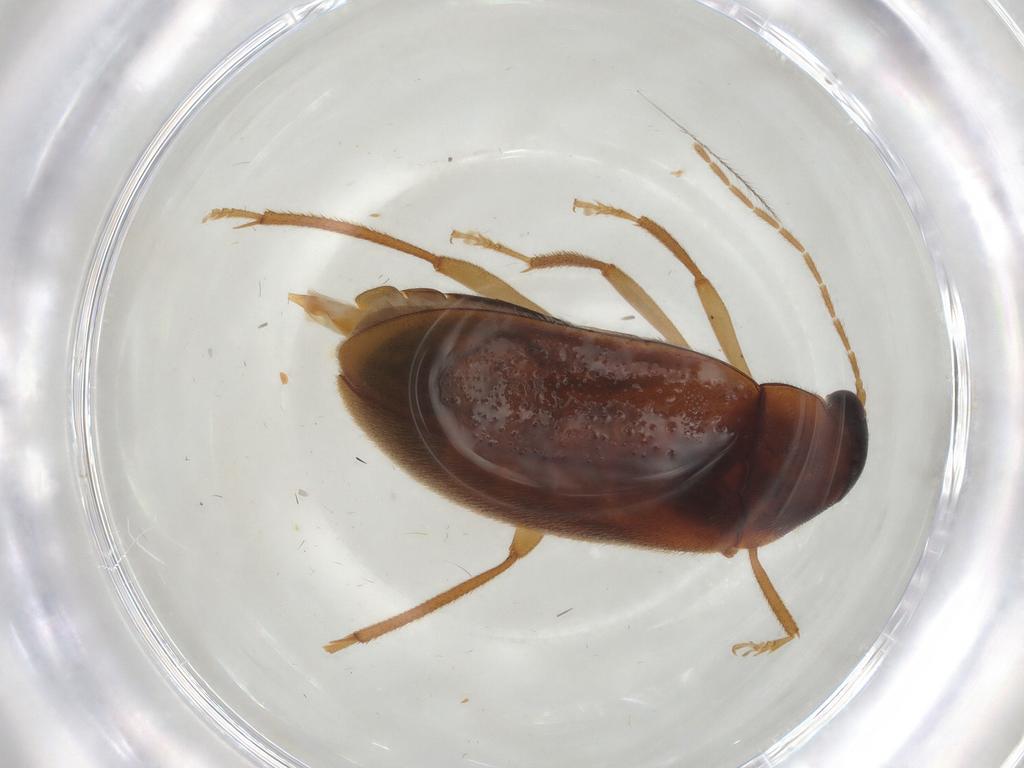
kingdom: Animalia
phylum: Arthropoda
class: Insecta
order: Coleoptera
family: Ptilodactylidae
